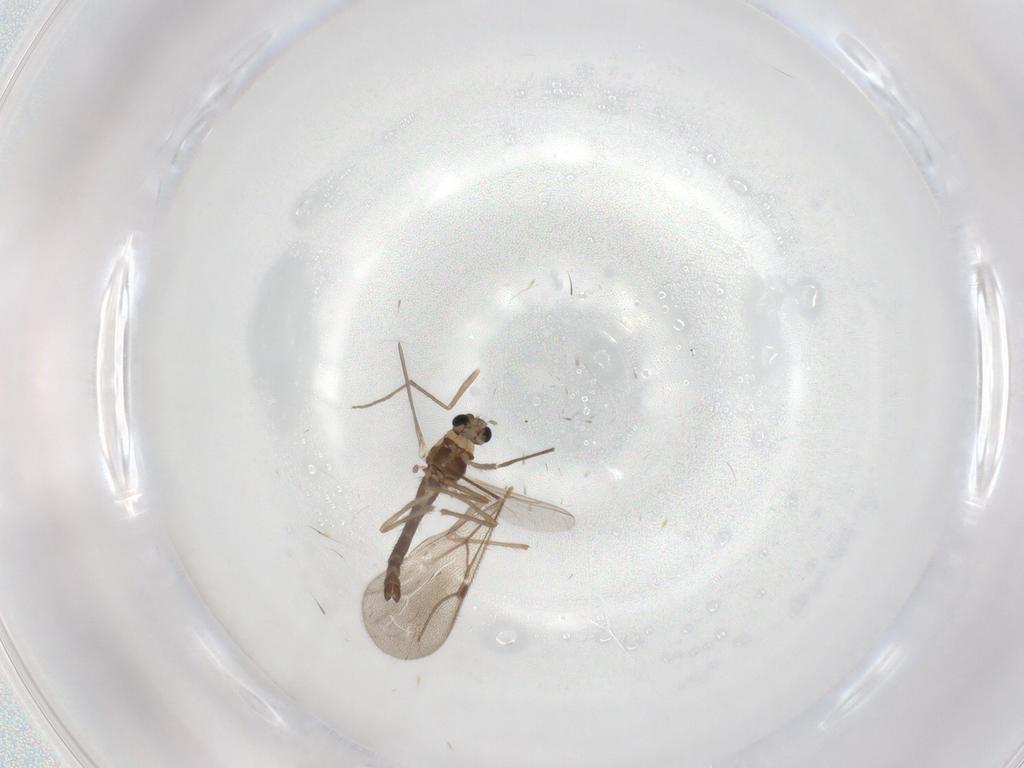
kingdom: Animalia
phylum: Arthropoda
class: Insecta
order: Diptera
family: Chironomidae
